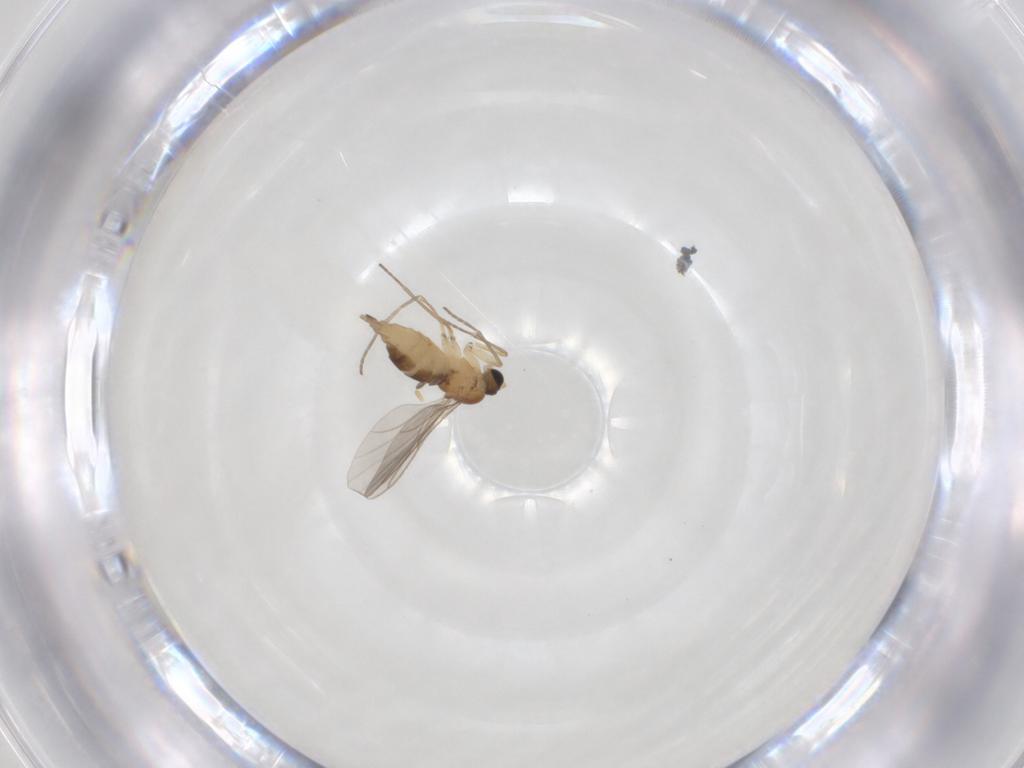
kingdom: Animalia
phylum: Arthropoda
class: Insecta
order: Diptera
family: Sciaridae
